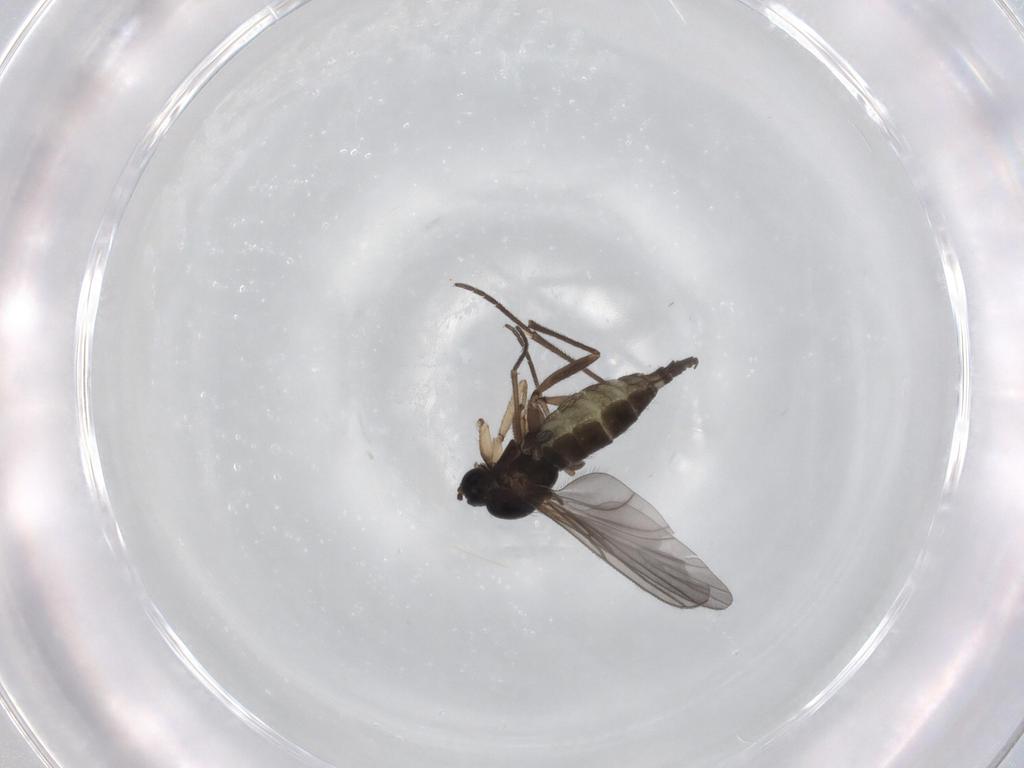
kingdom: Animalia
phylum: Arthropoda
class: Insecta
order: Diptera
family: Sciaridae
